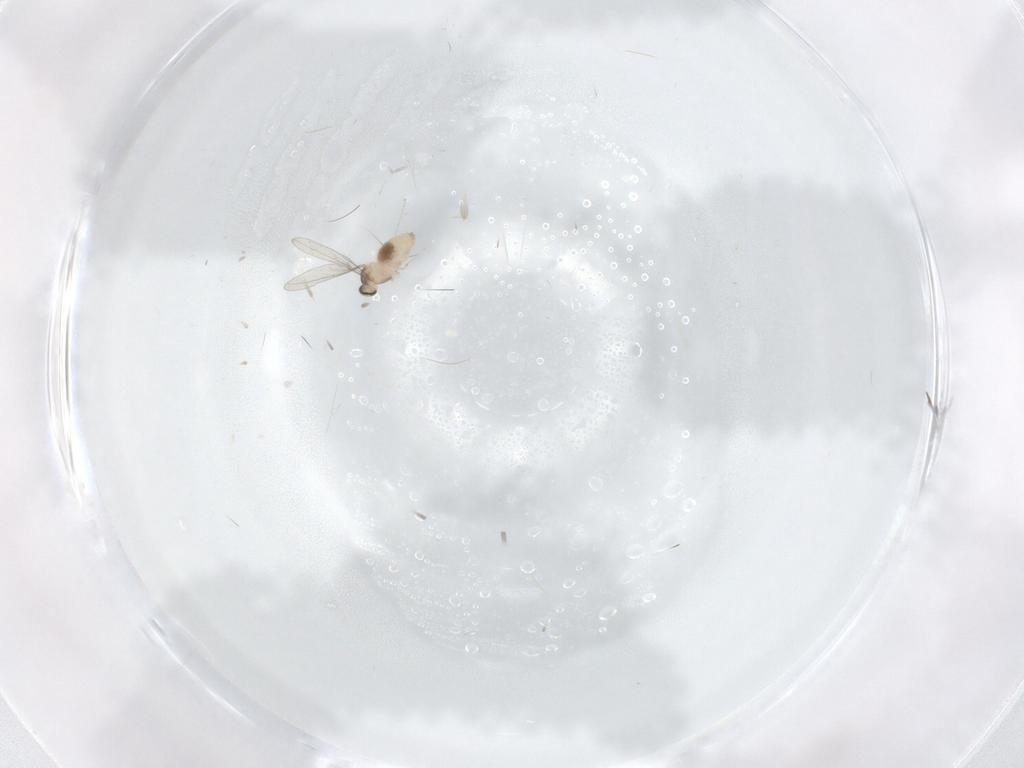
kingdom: Animalia
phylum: Arthropoda
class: Insecta
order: Diptera
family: Cecidomyiidae
